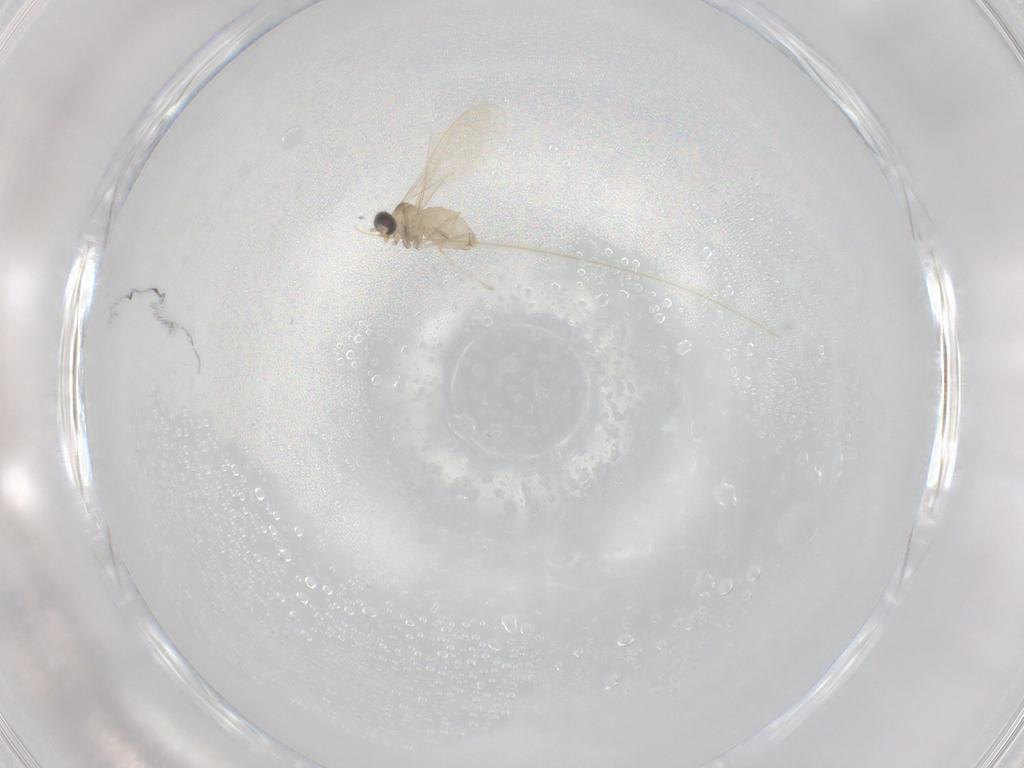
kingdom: Animalia
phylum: Arthropoda
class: Insecta
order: Diptera
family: Cecidomyiidae
